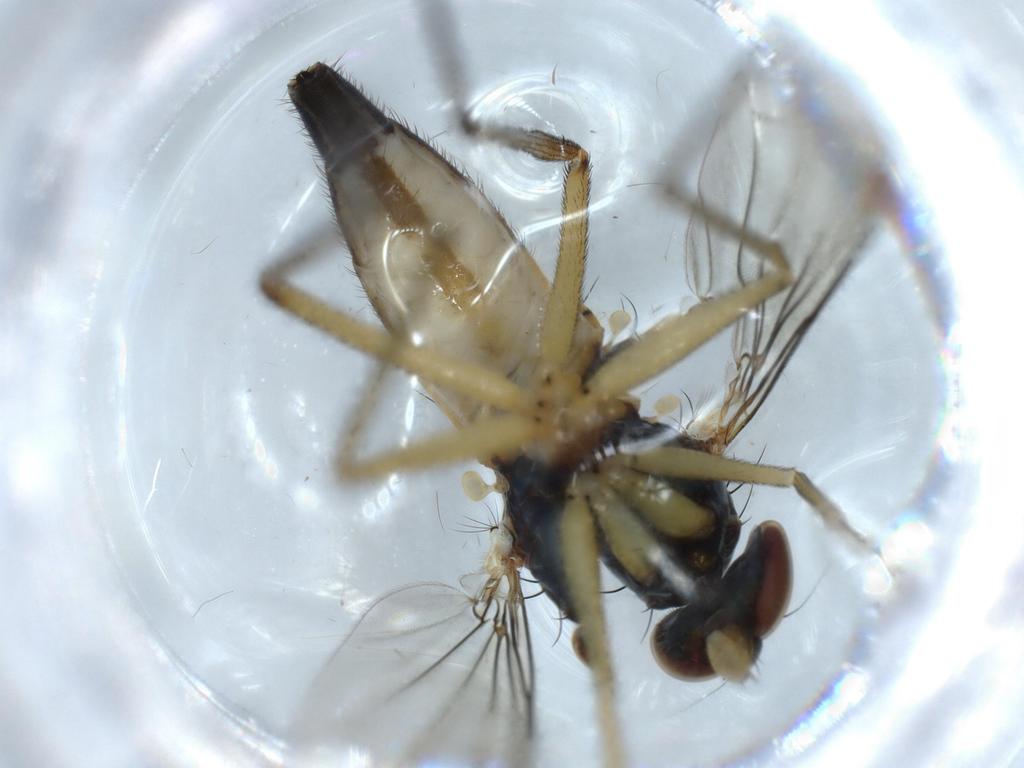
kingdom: Animalia
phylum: Arthropoda
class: Insecta
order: Diptera
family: Dolichopodidae
